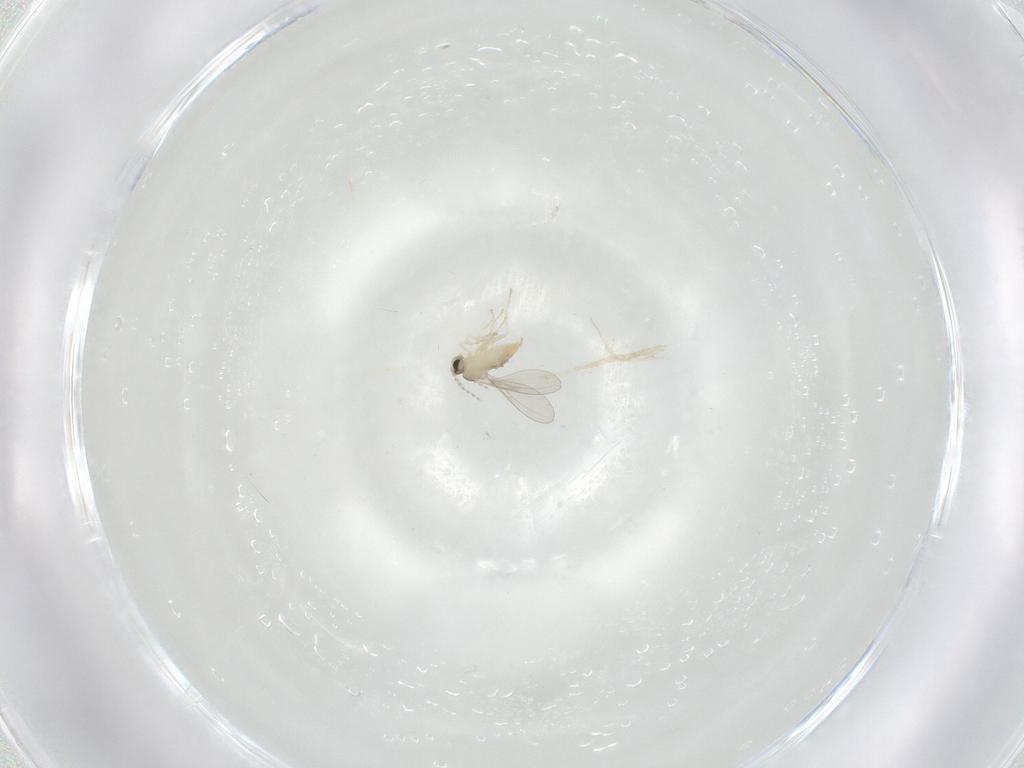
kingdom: Animalia
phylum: Arthropoda
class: Insecta
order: Diptera
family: Cecidomyiidae
